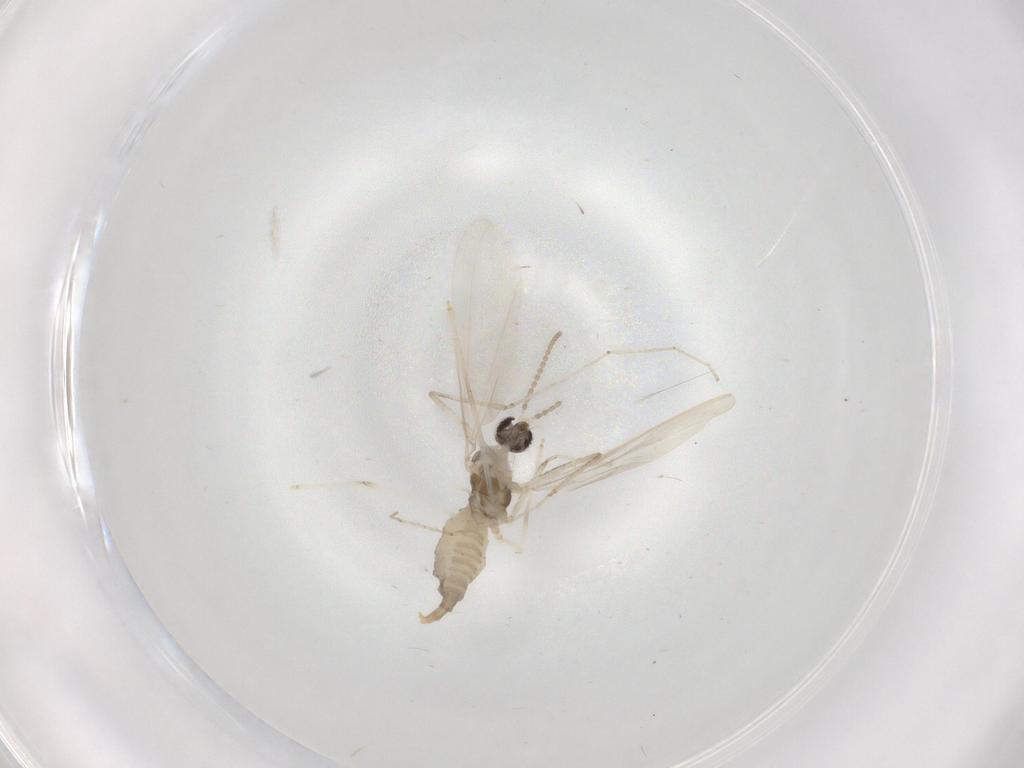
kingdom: Animalia
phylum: Arthropoda
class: Insecta
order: Diptera
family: Cecidomyiidae
